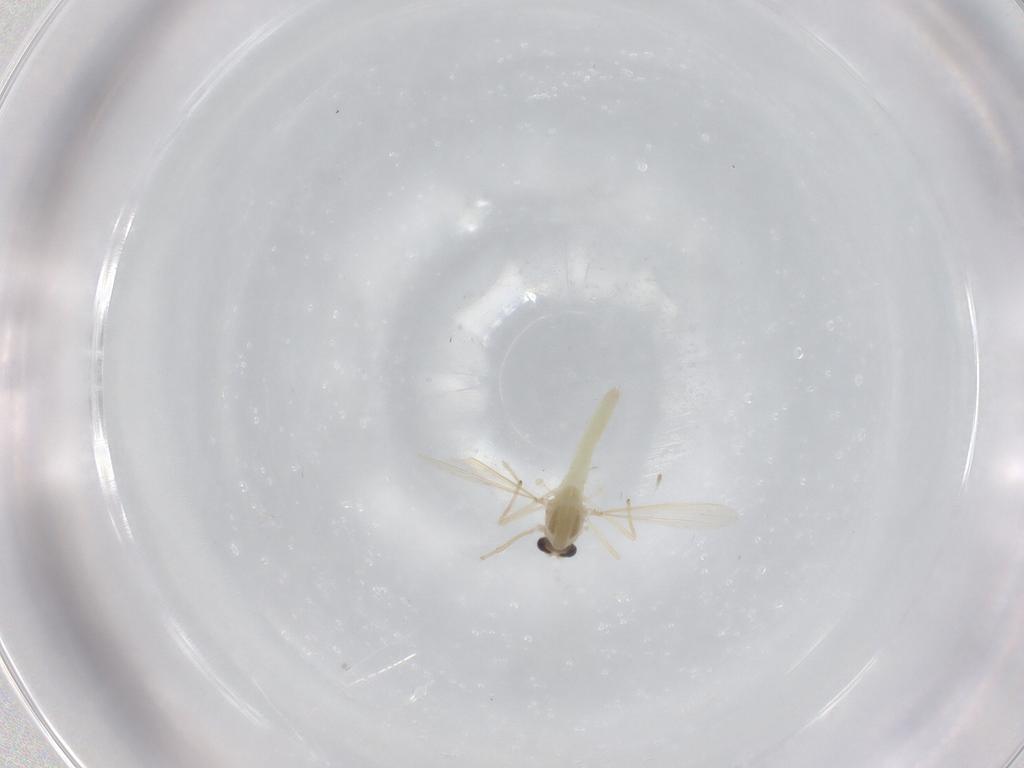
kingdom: Animalia
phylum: Arthropoda
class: Insecta
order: Diptera
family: Chironomidae
